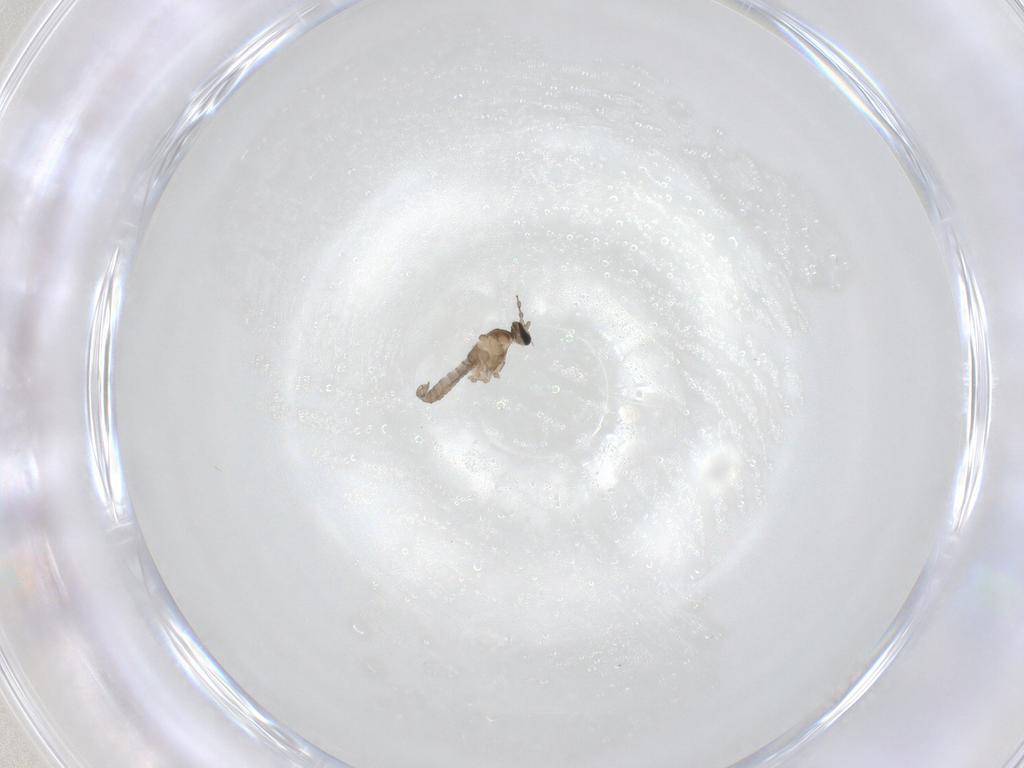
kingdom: Animalia
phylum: Arthropoda
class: Insecta
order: Diptera
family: Cecidomyiidae
